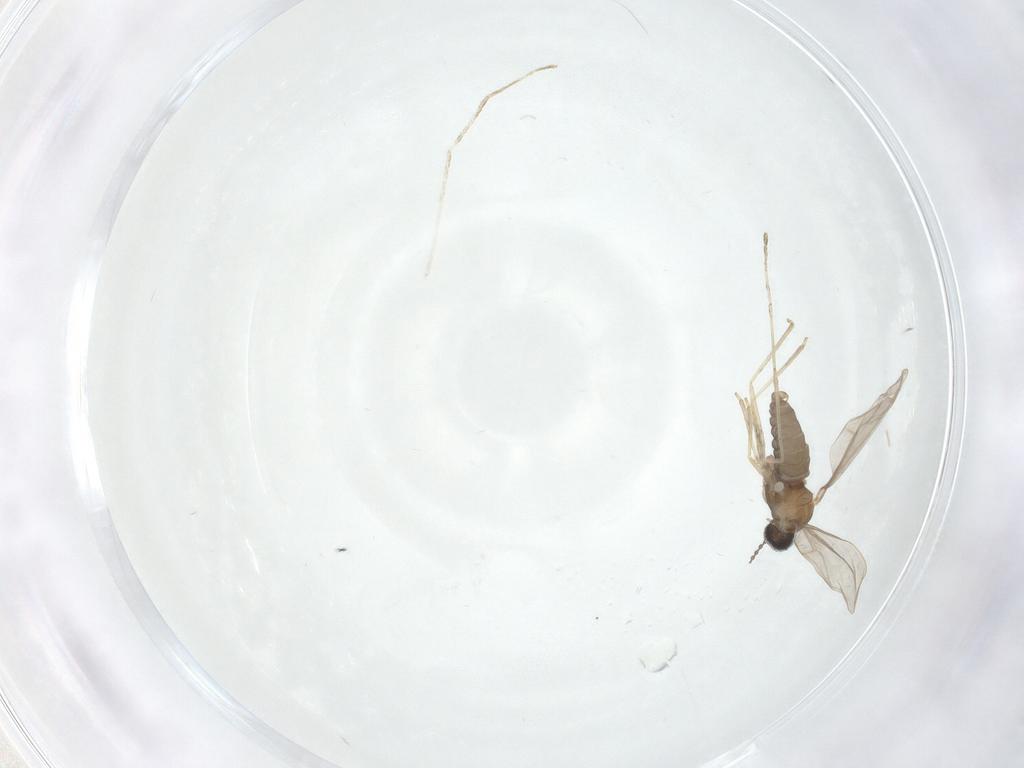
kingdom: Animalia
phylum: Arthropoda
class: Insecta
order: Diptera
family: Cecidomyiidae
